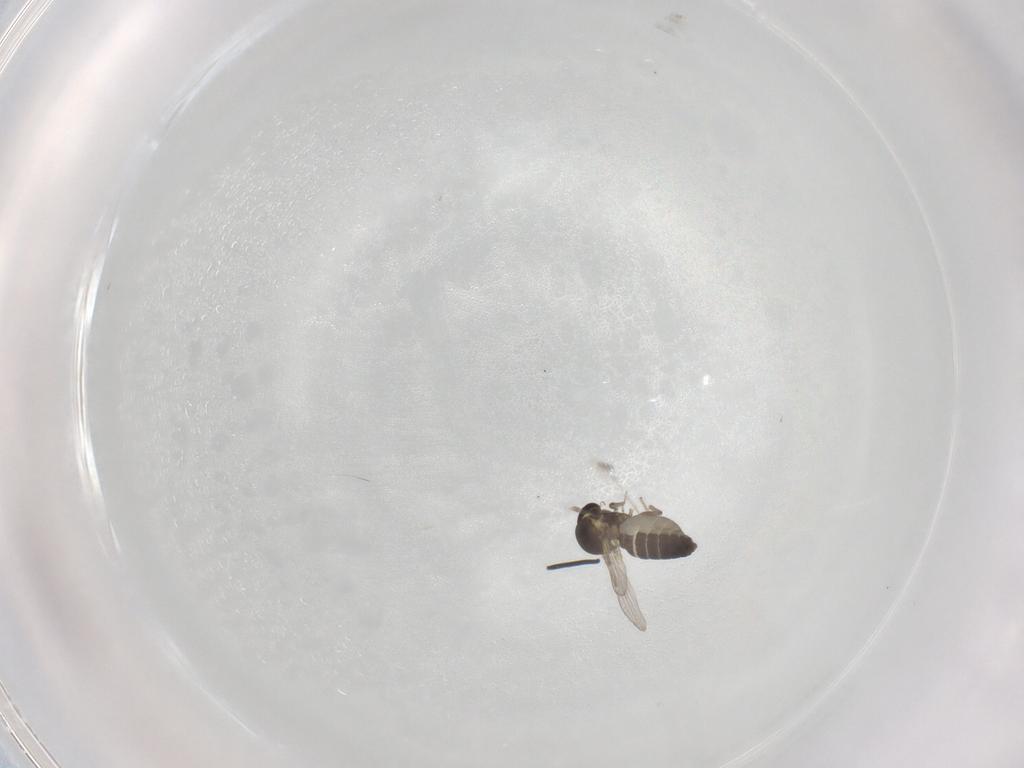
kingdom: Animalia
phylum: Arthropoda
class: Insecta
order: Diptera
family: Ceratopogonidae
